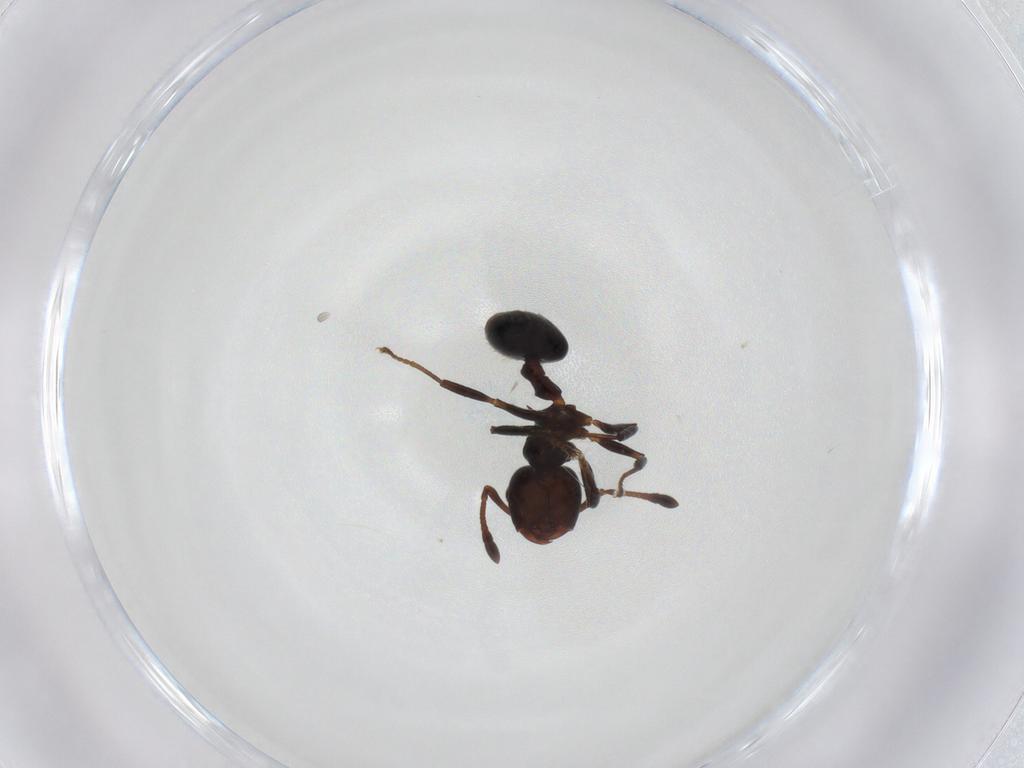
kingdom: Animalia
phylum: Arthropoda
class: Insecta
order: Hymenoptera
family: Formicidae
